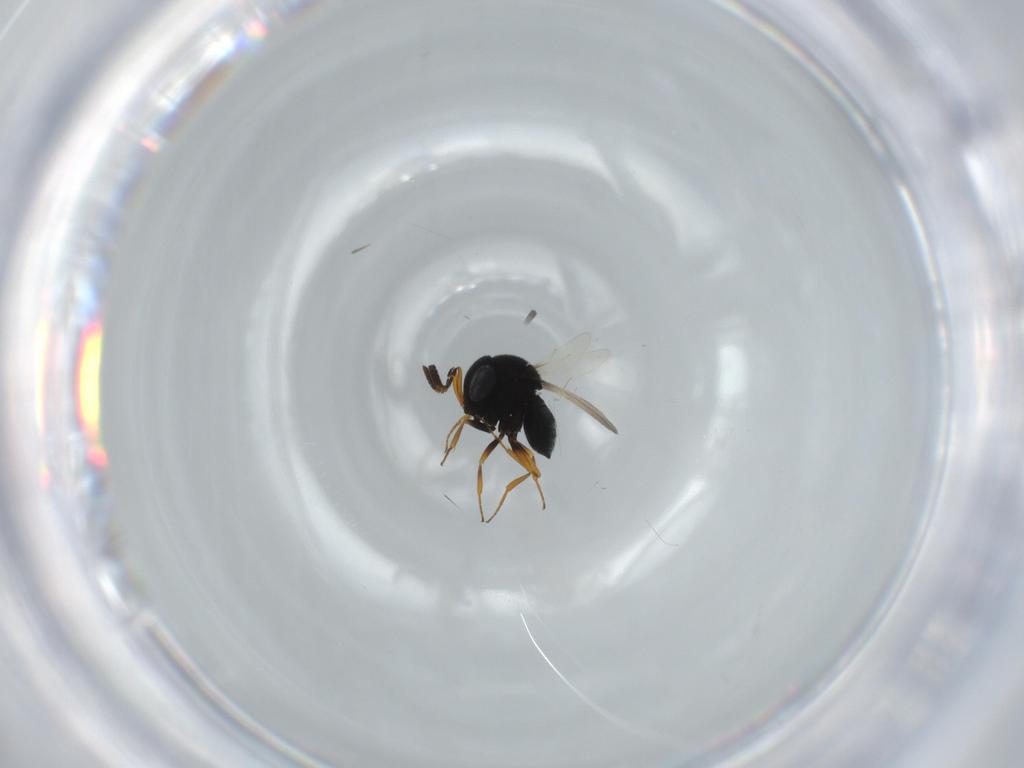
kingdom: Animalia
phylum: Arthropoda
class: Insecta
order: Hymenoptera
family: Scelionidae
